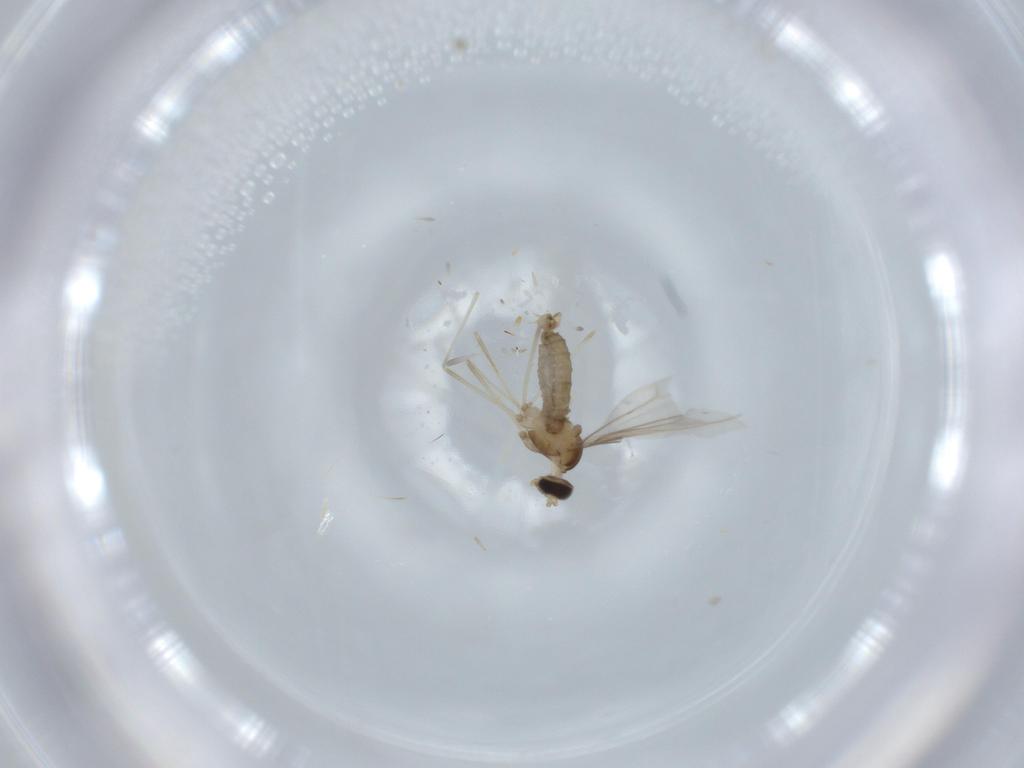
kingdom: Animalia
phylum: Arthropoda
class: Insecta
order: Diptera
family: Cecidomyiidae
